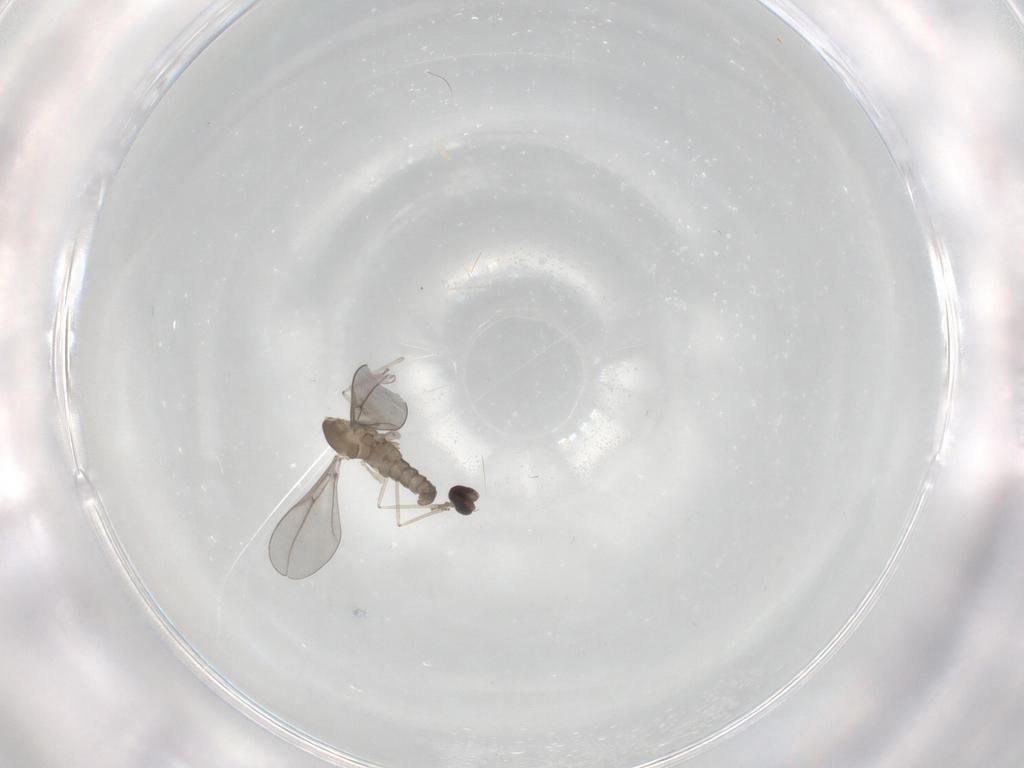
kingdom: Animalia
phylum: Arthropoda
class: Insecta
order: Diptera
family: Cecidomyiidae
